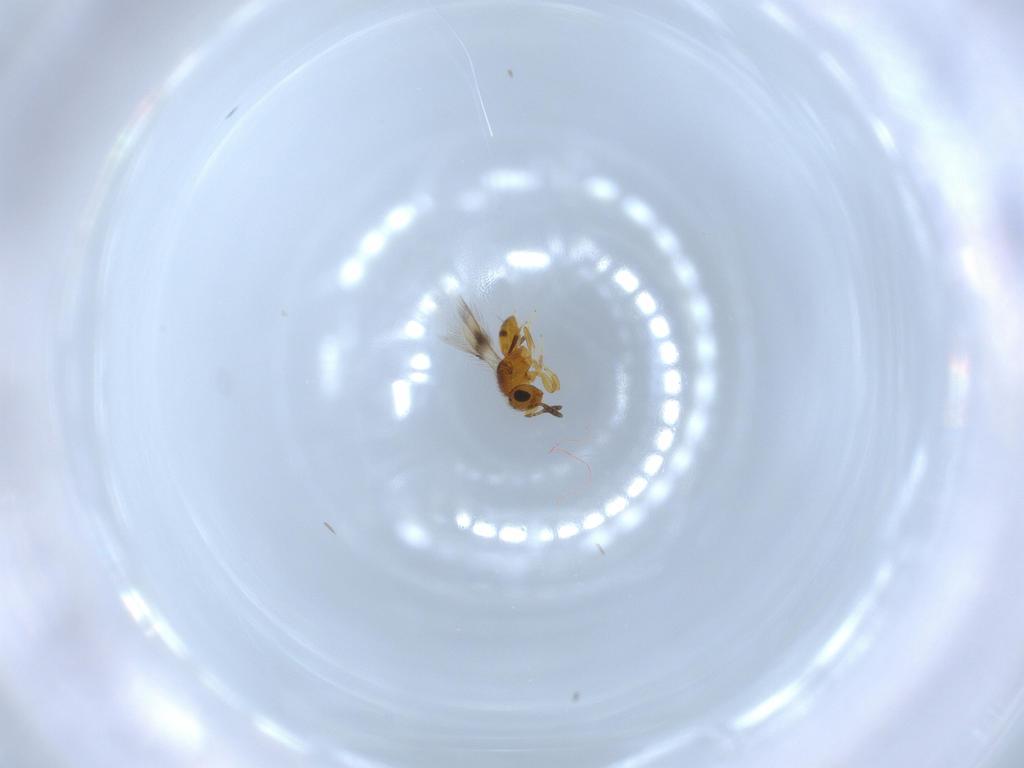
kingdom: Animalia
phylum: Arthropoda
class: Insecta
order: Hymenoptera
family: Scelionidae
